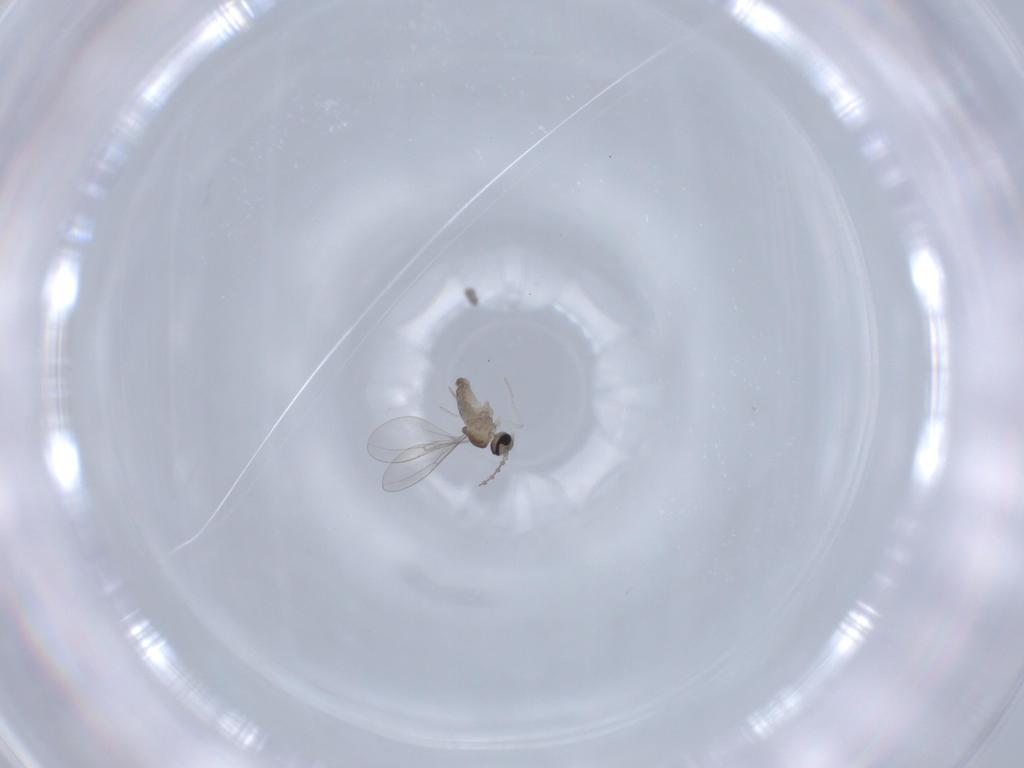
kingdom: Animalia
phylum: Arthropoda
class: Insecta
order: Diptera
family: Cecidomyiidae
